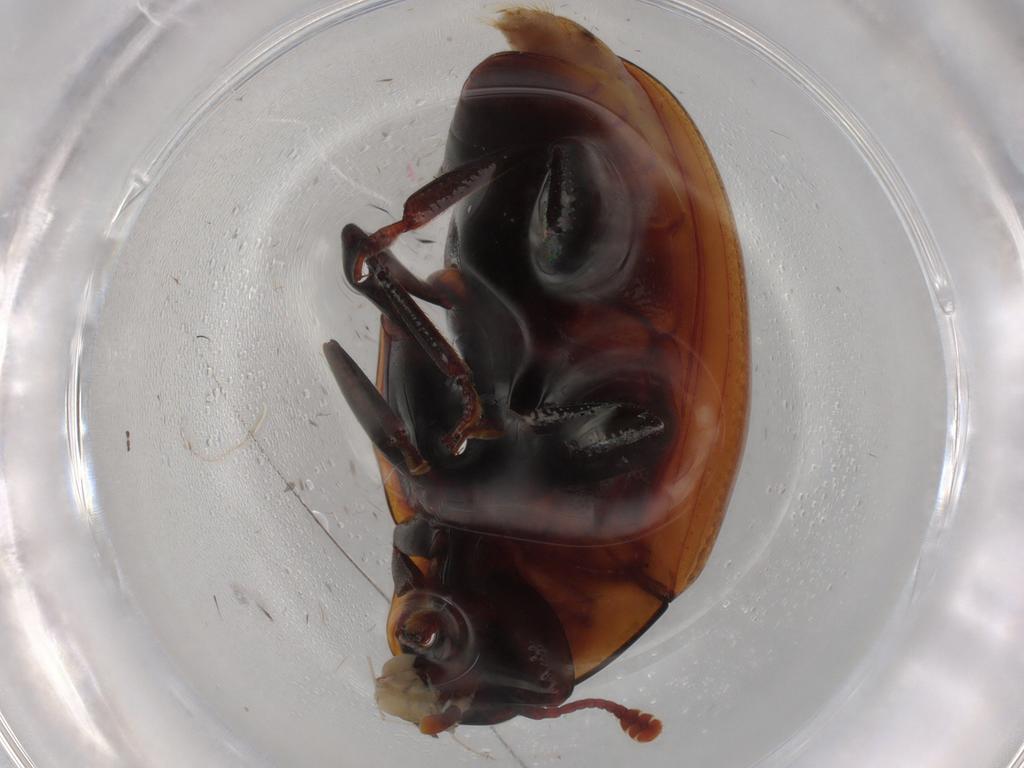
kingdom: Animalia
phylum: Arthropoda
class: Insecta
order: Coleoptera
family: Zopheridae
